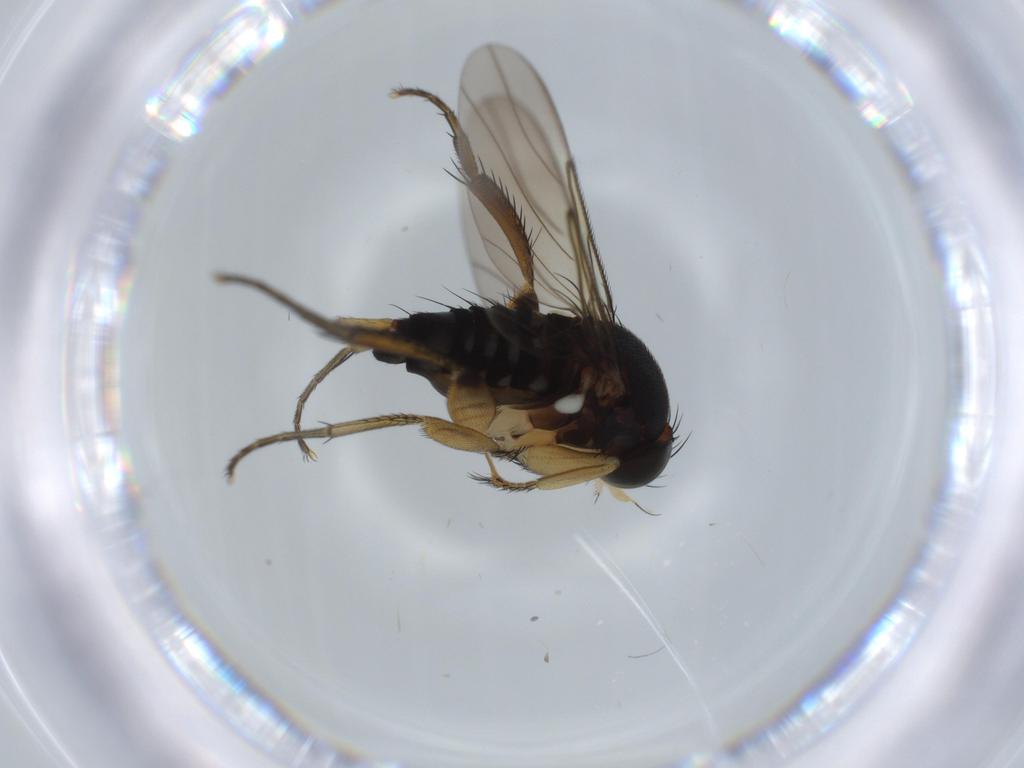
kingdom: Animalia
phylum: Arthropoda
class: Insecta
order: Diptera
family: Phoridae
